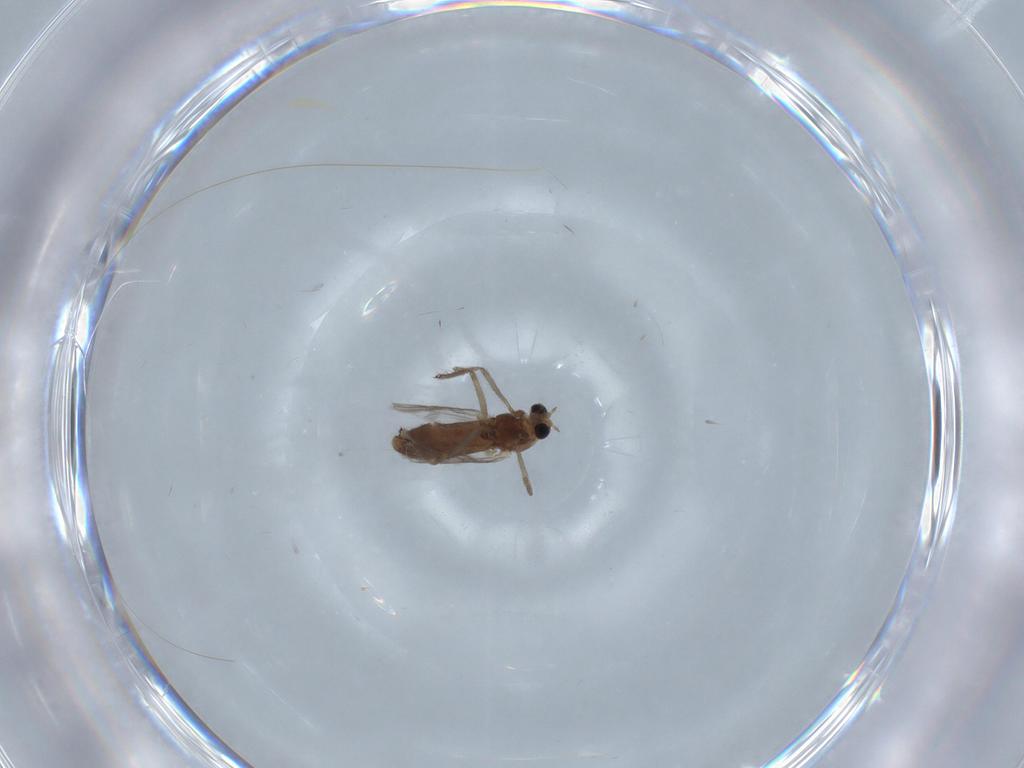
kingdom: Animalia
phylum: Arthropoda
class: Insecta
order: Diptera
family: Chironomidae
